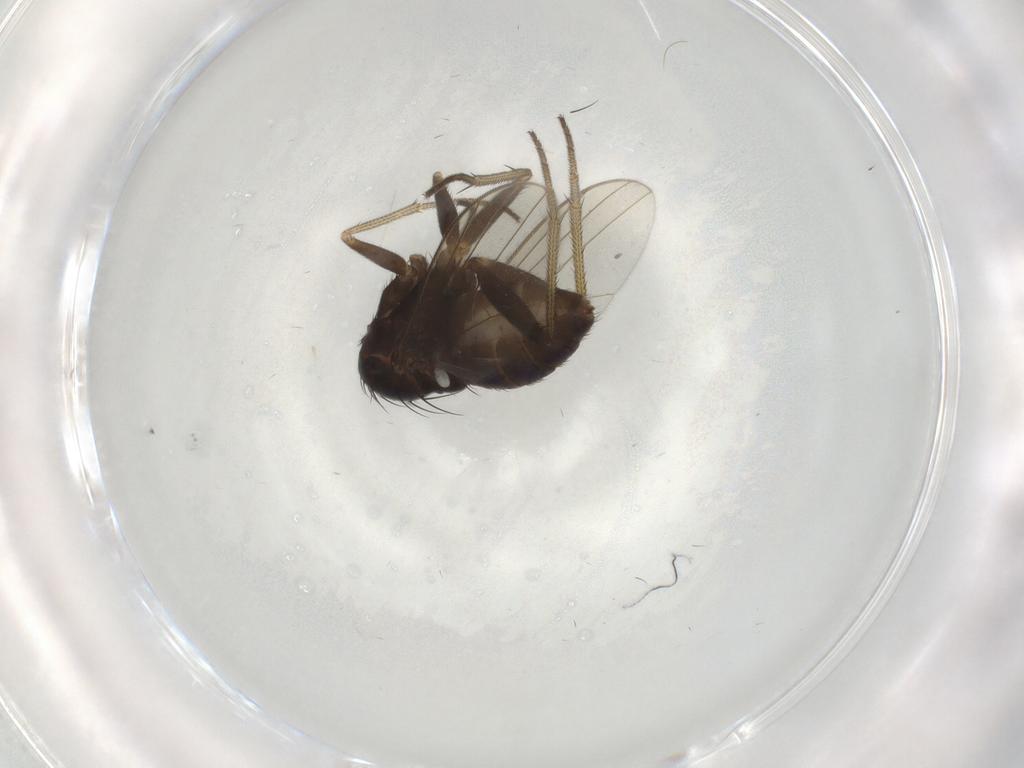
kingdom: Animalia
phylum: Arthropoda
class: Insecta
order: Diptera
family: Dolichopodidae
